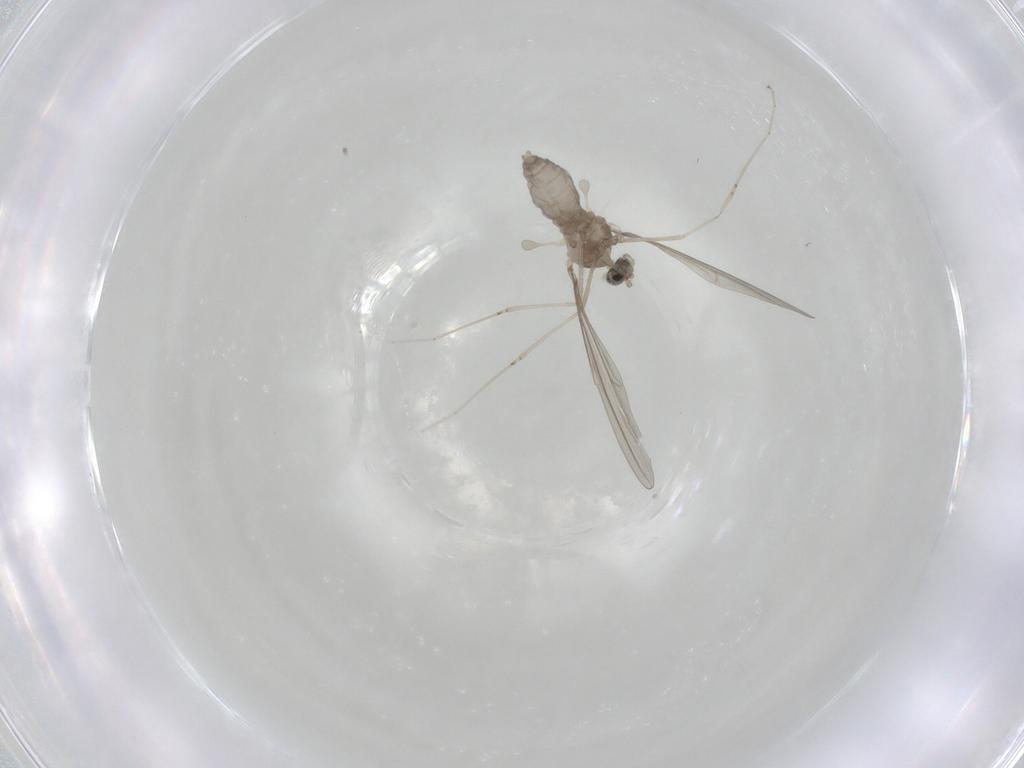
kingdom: Animalia
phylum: Arthropoda
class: Insecta
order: Diptera
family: Cecidomyiidae
